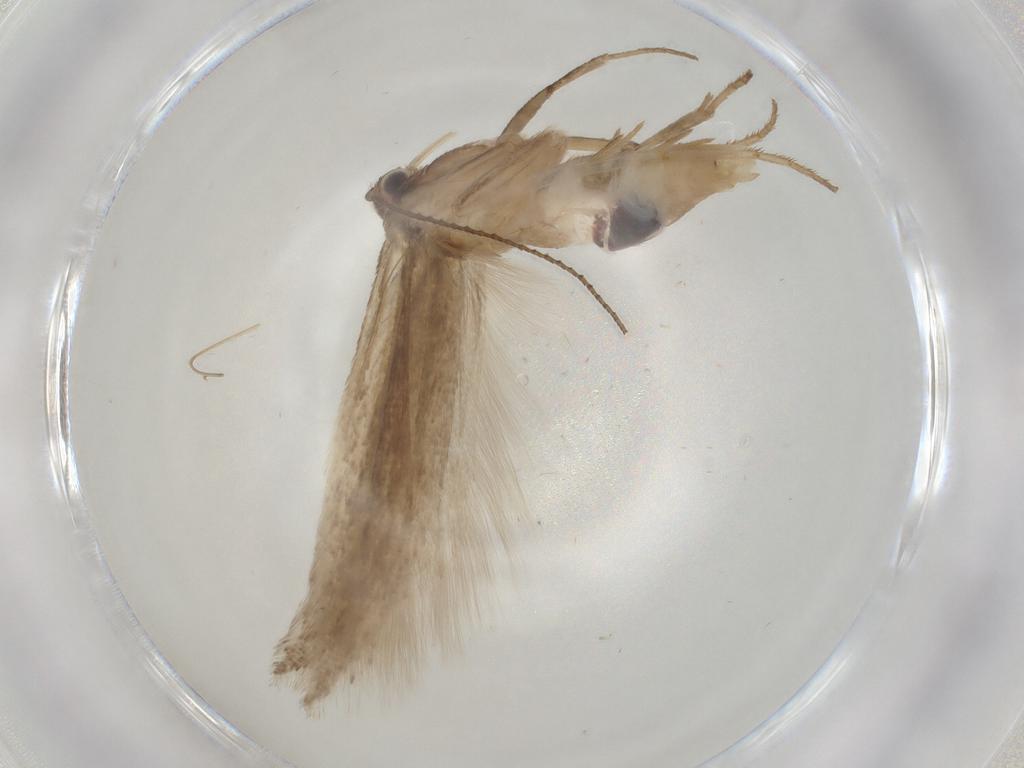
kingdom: Animalia
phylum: Arthropoda
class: Insecta
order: Lepidoptera
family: Gelechiidae
